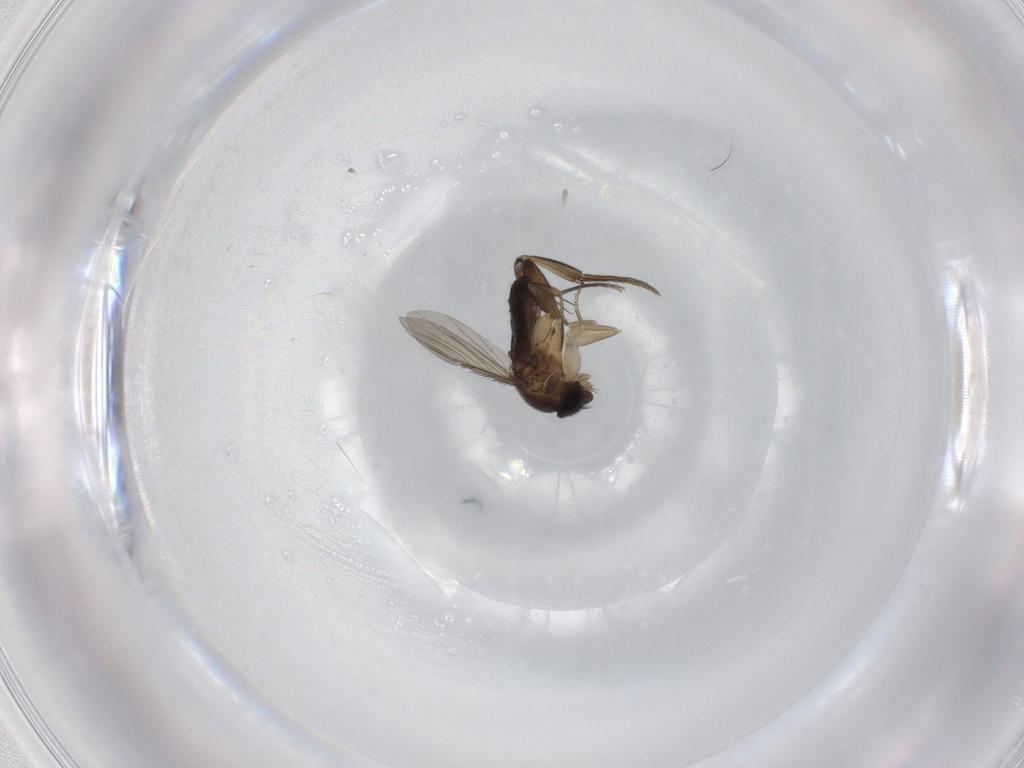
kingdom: Animalia
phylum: Arthropoda
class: Insecta
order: Diptera
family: Phoridae
